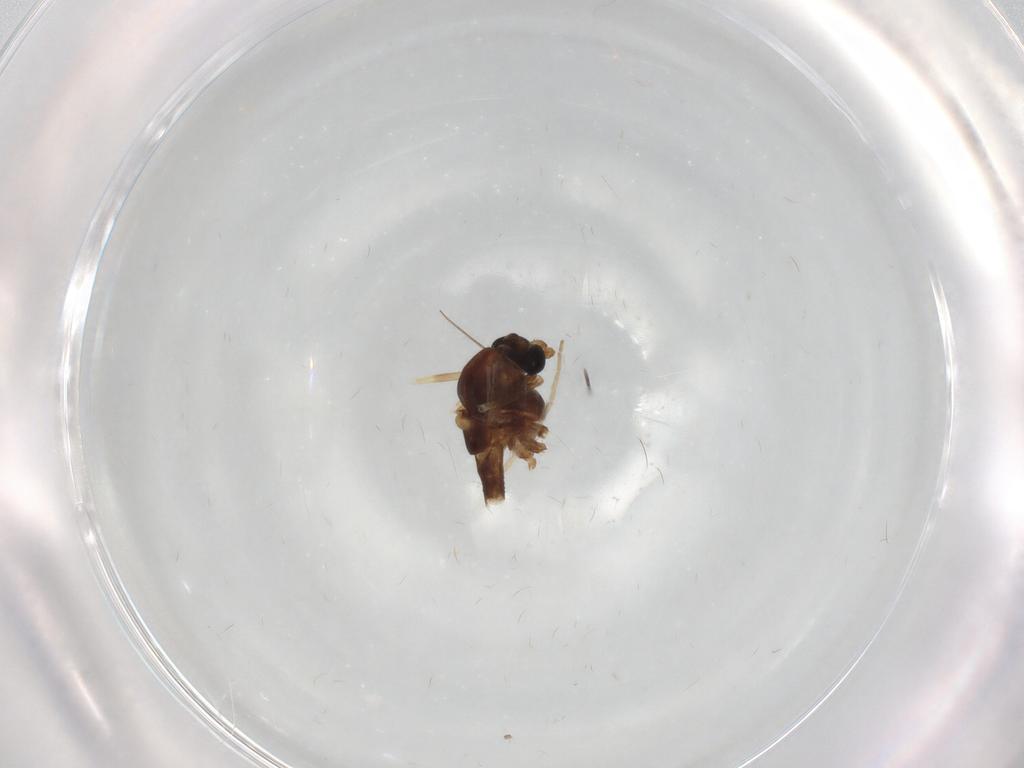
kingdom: Animalia
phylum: Arthropoda
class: Insecta
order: Diptera
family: Chironomidae
